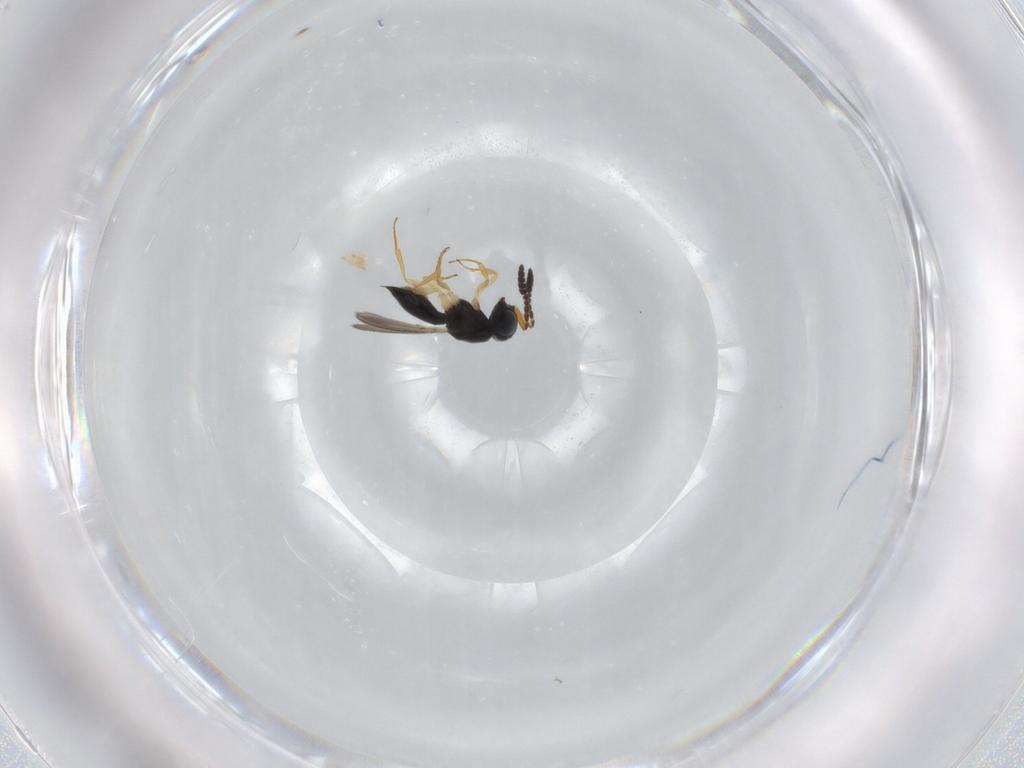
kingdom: Animalia
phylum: Arthropoda
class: Insecta
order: Hymenoptera
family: Scelionidae
